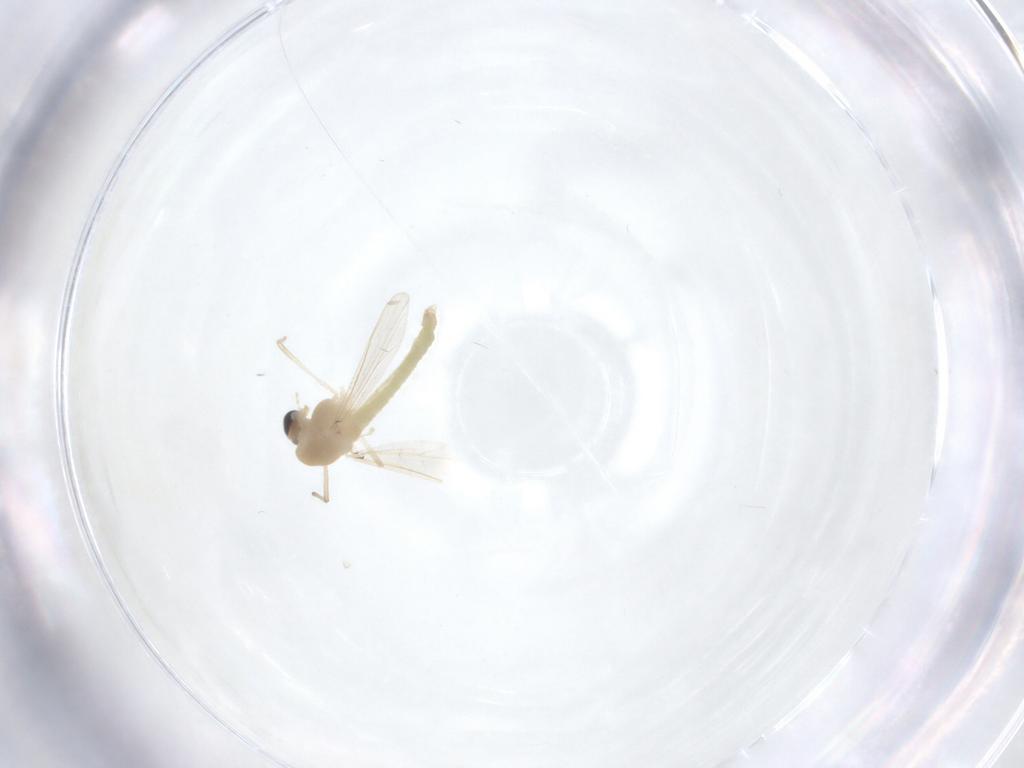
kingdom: Animalia
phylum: Arthropoda
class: Insecta
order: Diptera
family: Chironomidae
